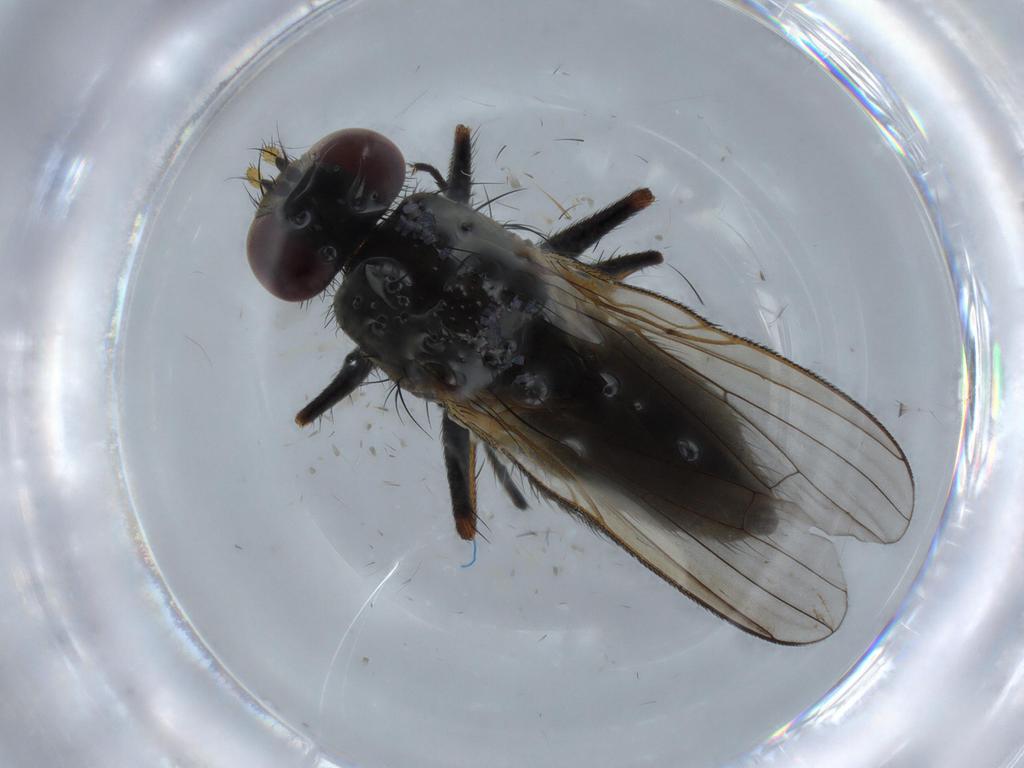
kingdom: Animalia
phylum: Arthropoda
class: Insecta
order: Diptera
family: Muscidae
